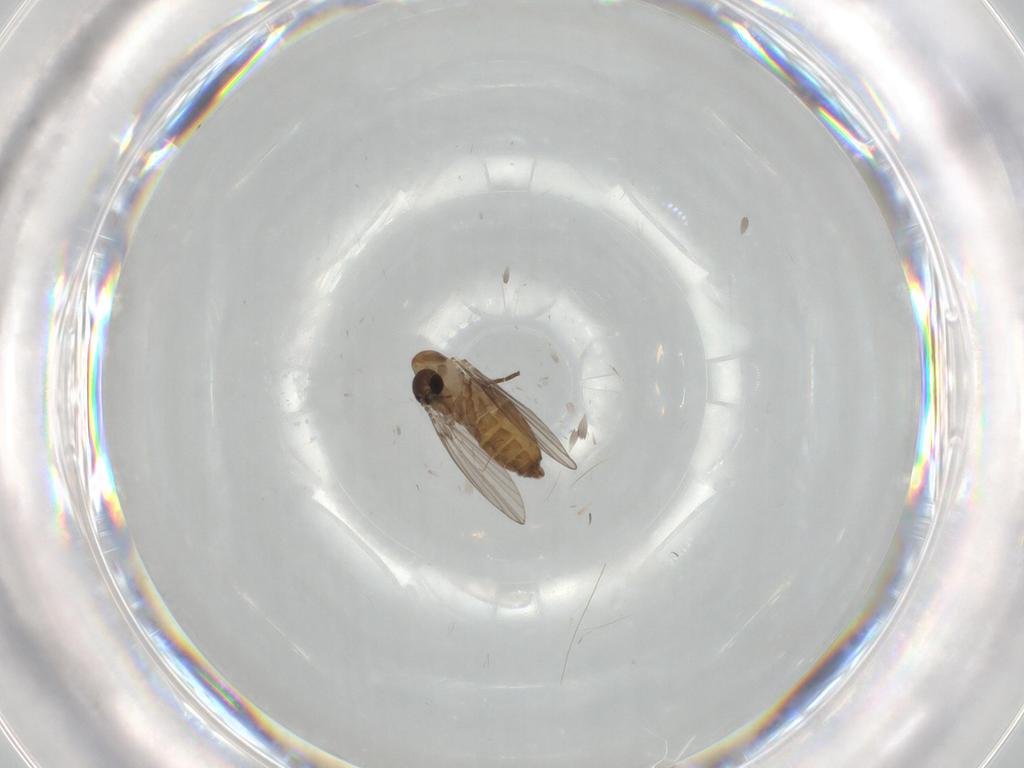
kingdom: Animalia
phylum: Arthropoda
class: Insecta
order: Diptera
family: Psychodidae
